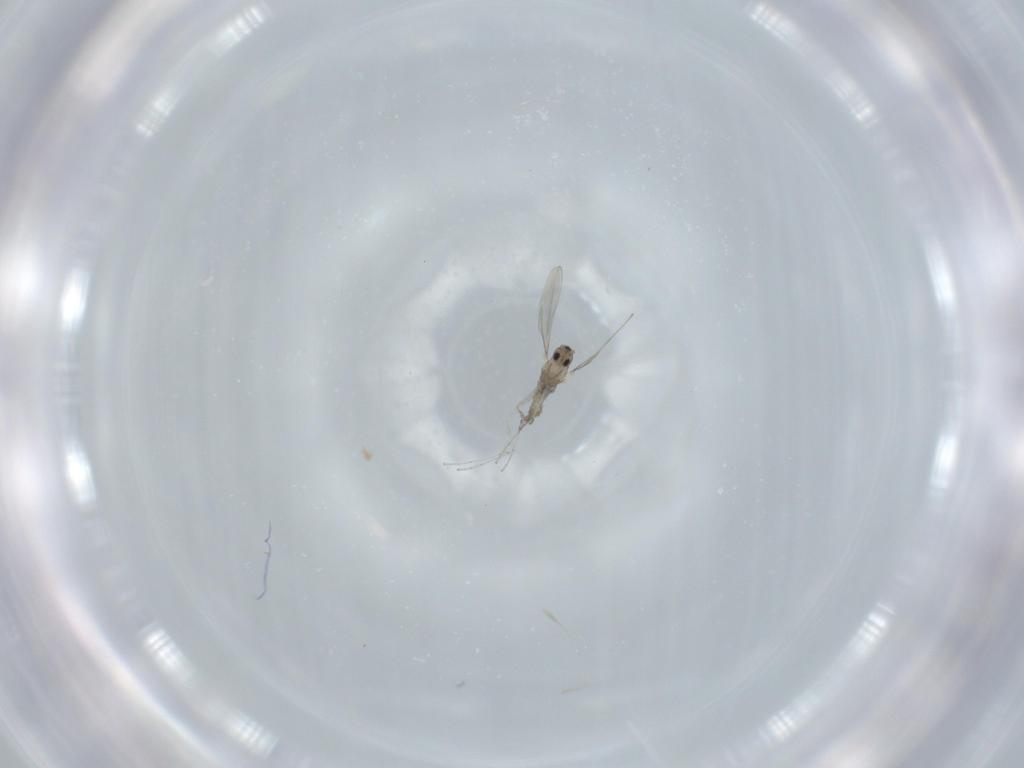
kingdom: Animalia
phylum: Arthropoda
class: Insecta
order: Diptera
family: Cecidomyiidae
